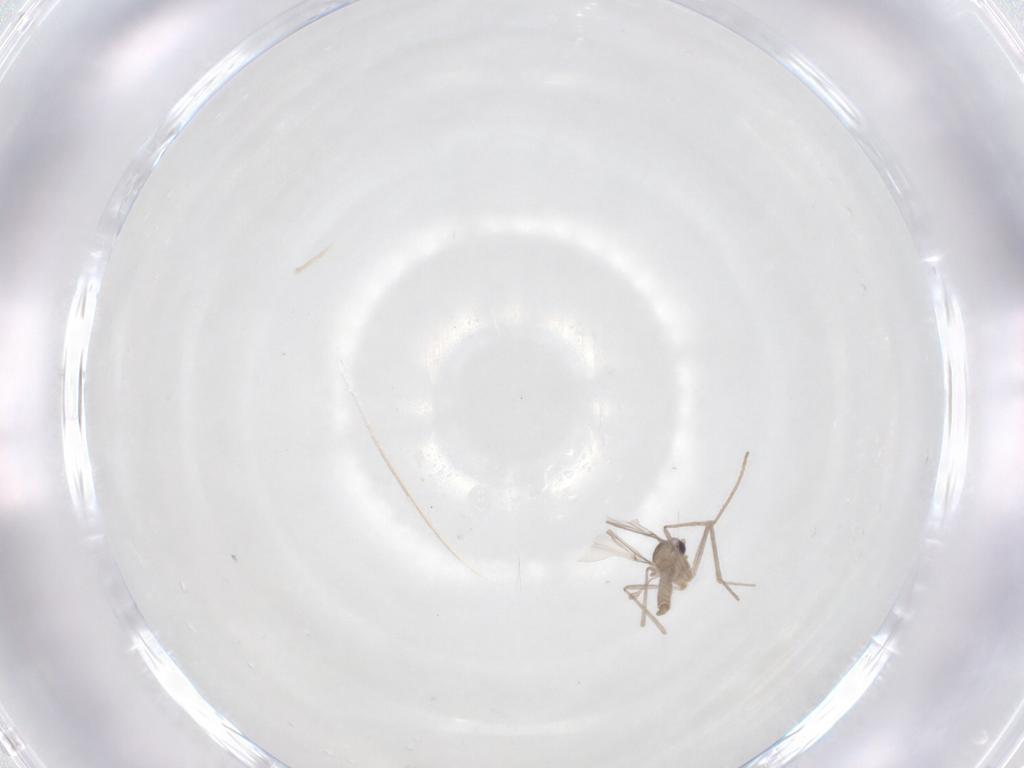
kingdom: Animalia
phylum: Arthropoda
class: Insecta
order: Diptera
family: Cecidomyiidae
